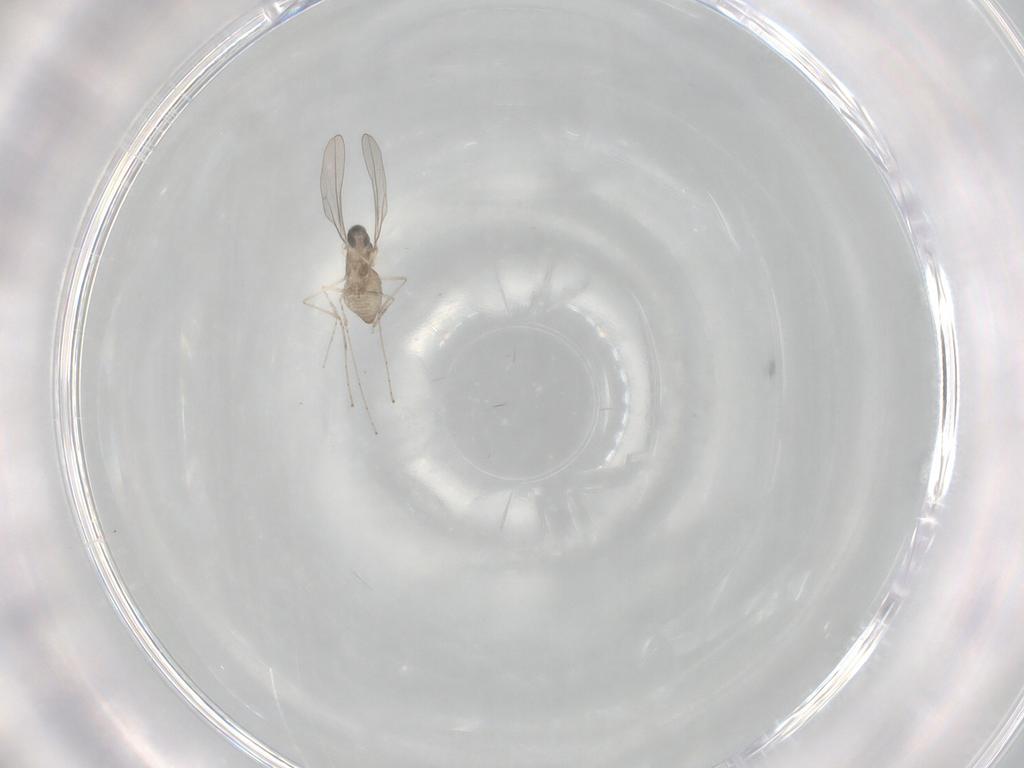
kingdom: Animalia
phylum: Arthropoda
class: Insecta
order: Diptera
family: Cecidomyiidae
